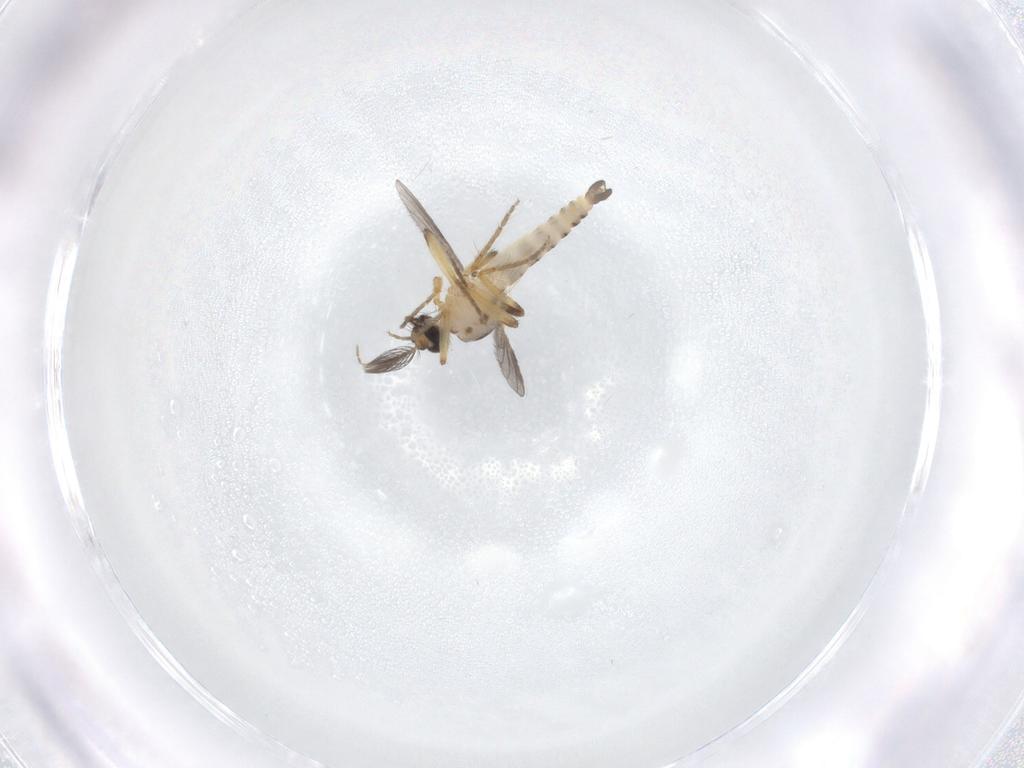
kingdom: Animalia
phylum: Arthropoda
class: Insecta
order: Diptera
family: Ceratopogonidae
